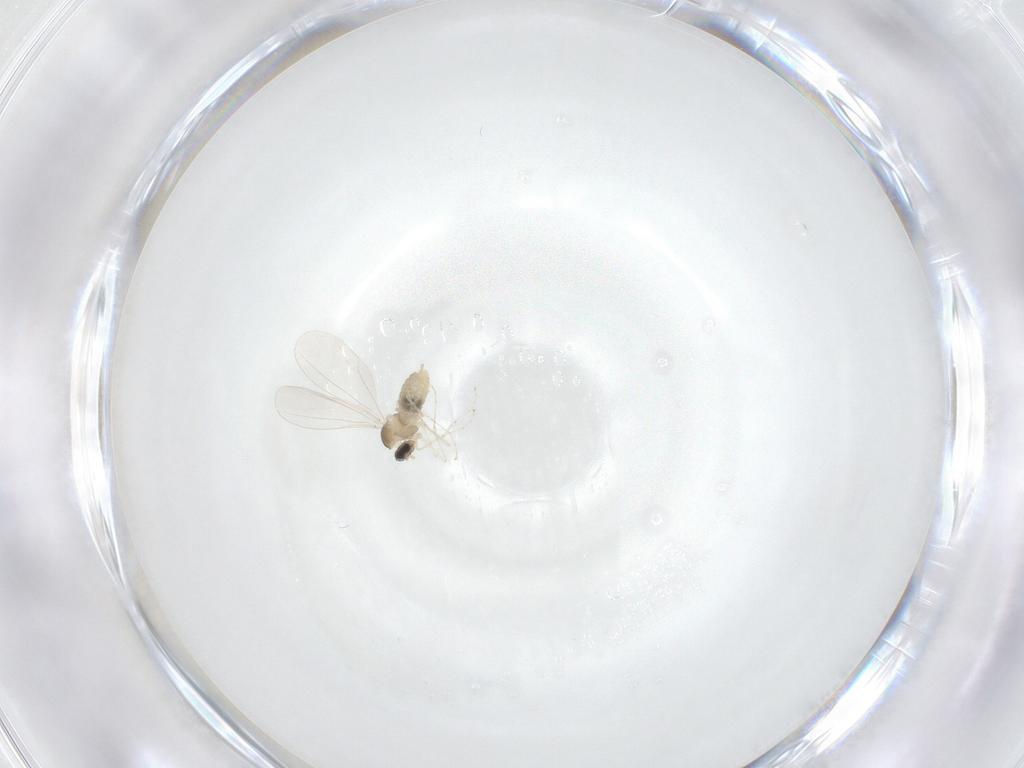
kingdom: Animalia
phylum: Arthropoda
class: Insecta
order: Diptera
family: Cecidomyiidae
